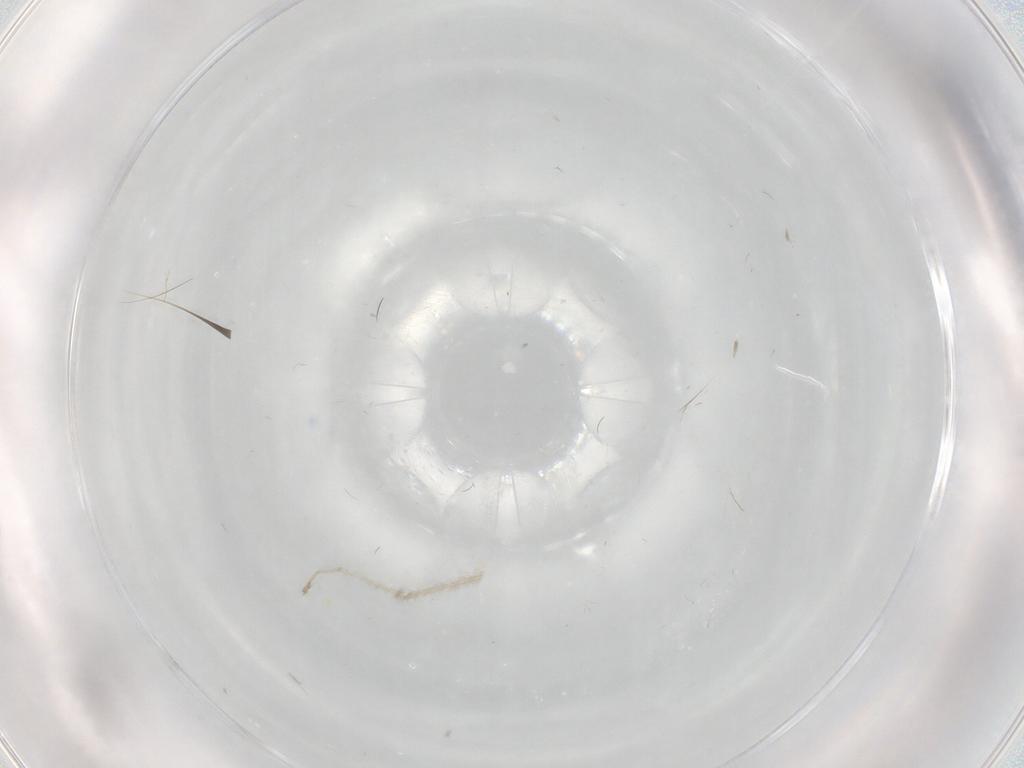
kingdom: Animalia
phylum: Arthropoda
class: Insecta
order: Diptera
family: Cecidomyiidae
